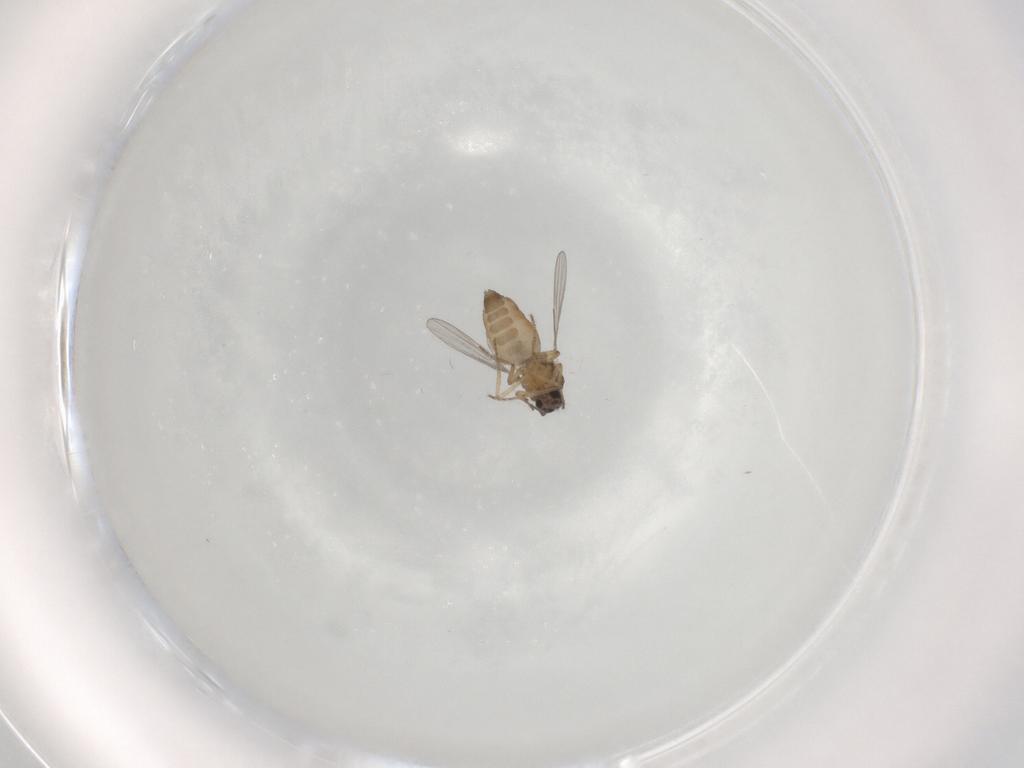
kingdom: Animalia
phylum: Arthropoda
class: Insecta
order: Diptera
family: Ceratopogonidae
